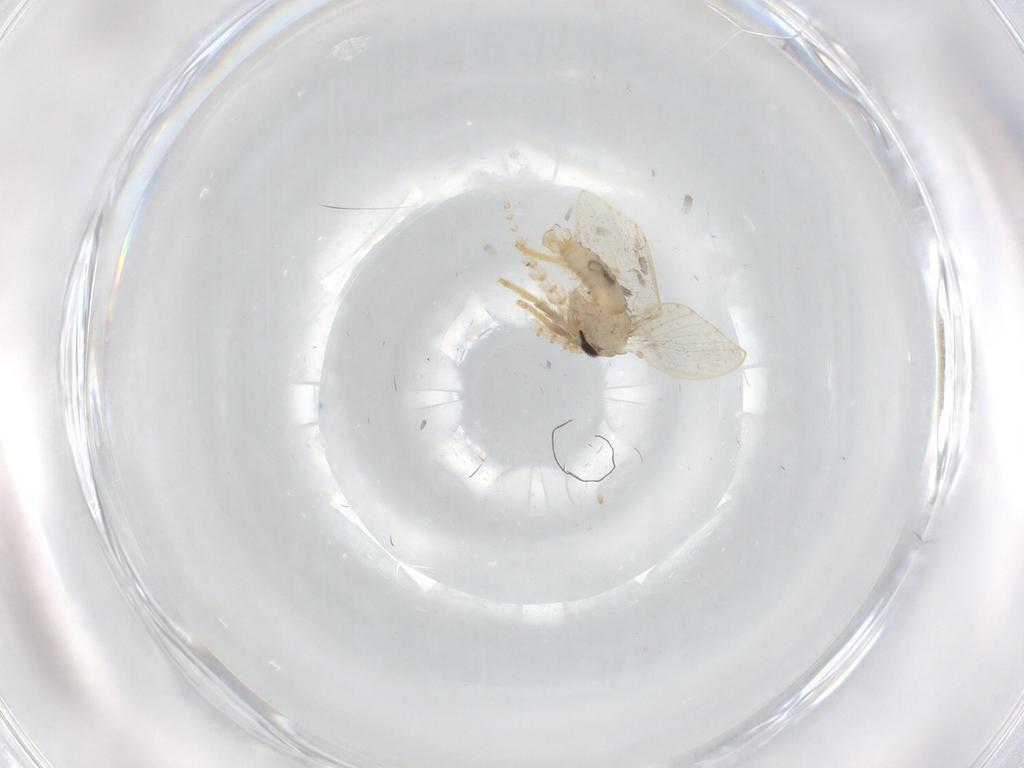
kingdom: Animalia
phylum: Arthropoda
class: Insecta
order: Diptera
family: Psychodidae
